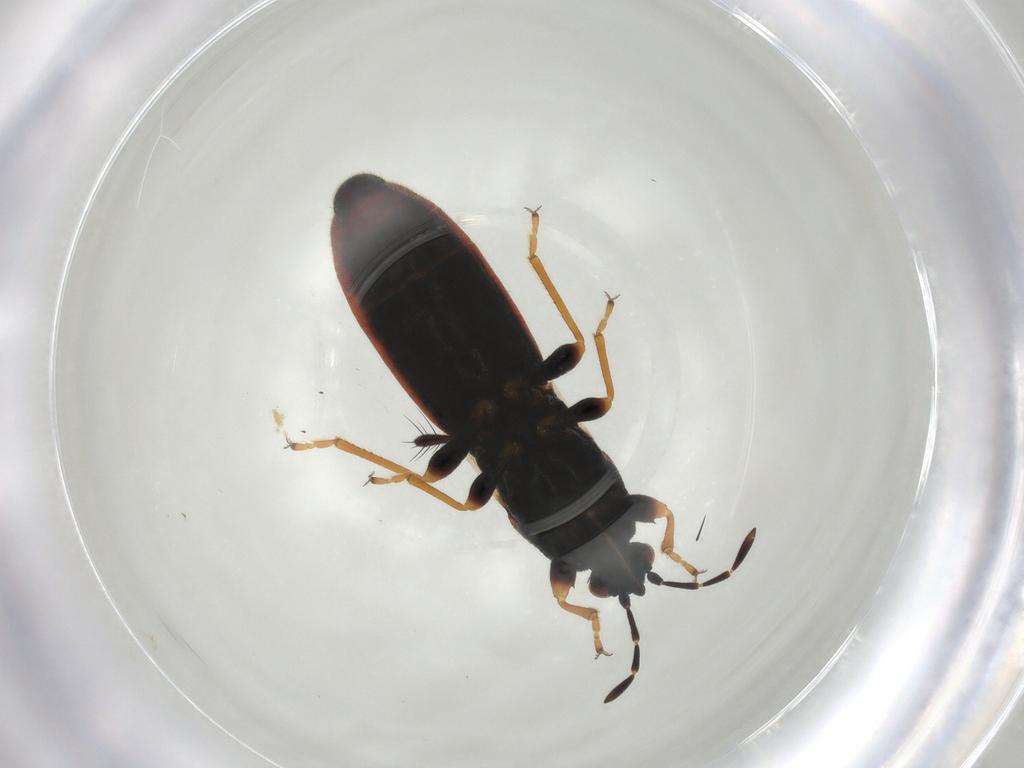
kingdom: Animalia
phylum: Arthropoda
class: Insecta
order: Hemiptera
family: Blissidae
